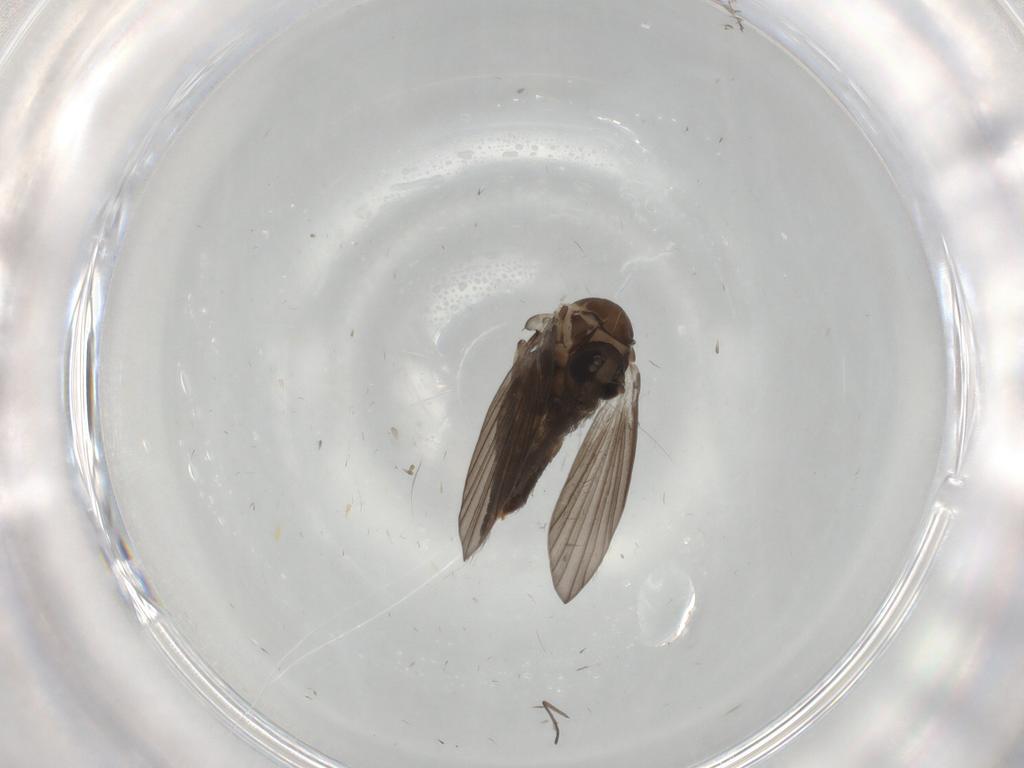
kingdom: Animalia
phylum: Arthropoda
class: Insecta
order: Diptera
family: Psychodidae
